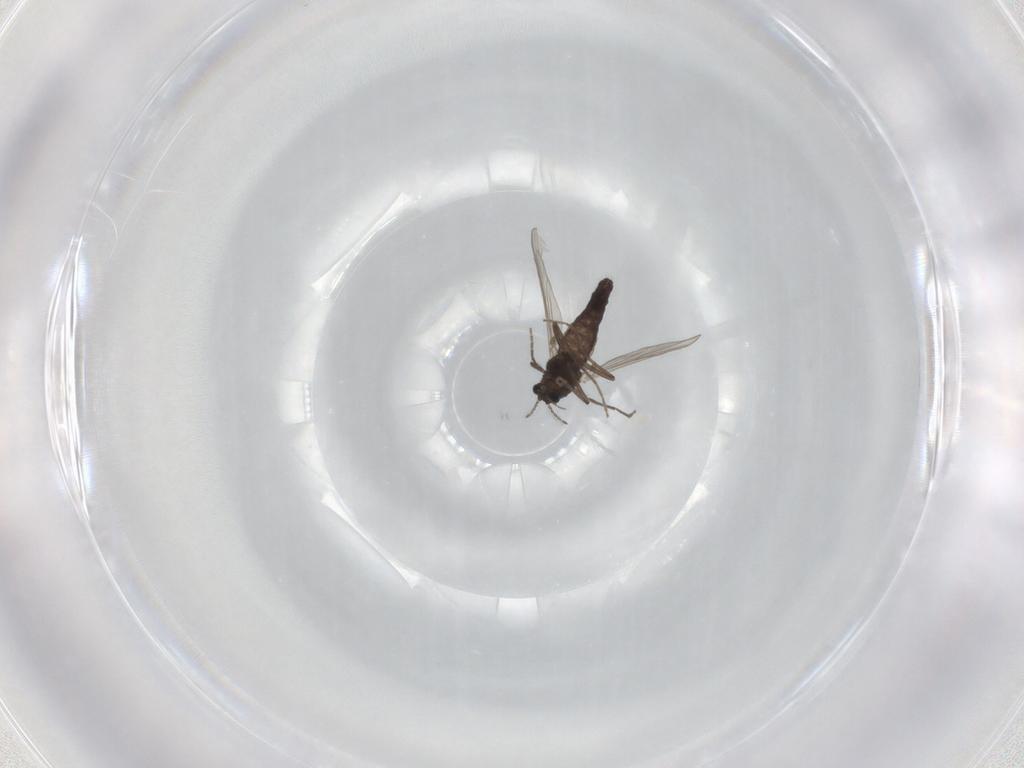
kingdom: Animalia
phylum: Arthropoda
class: Insecta
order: Diptera
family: Chironomidae
